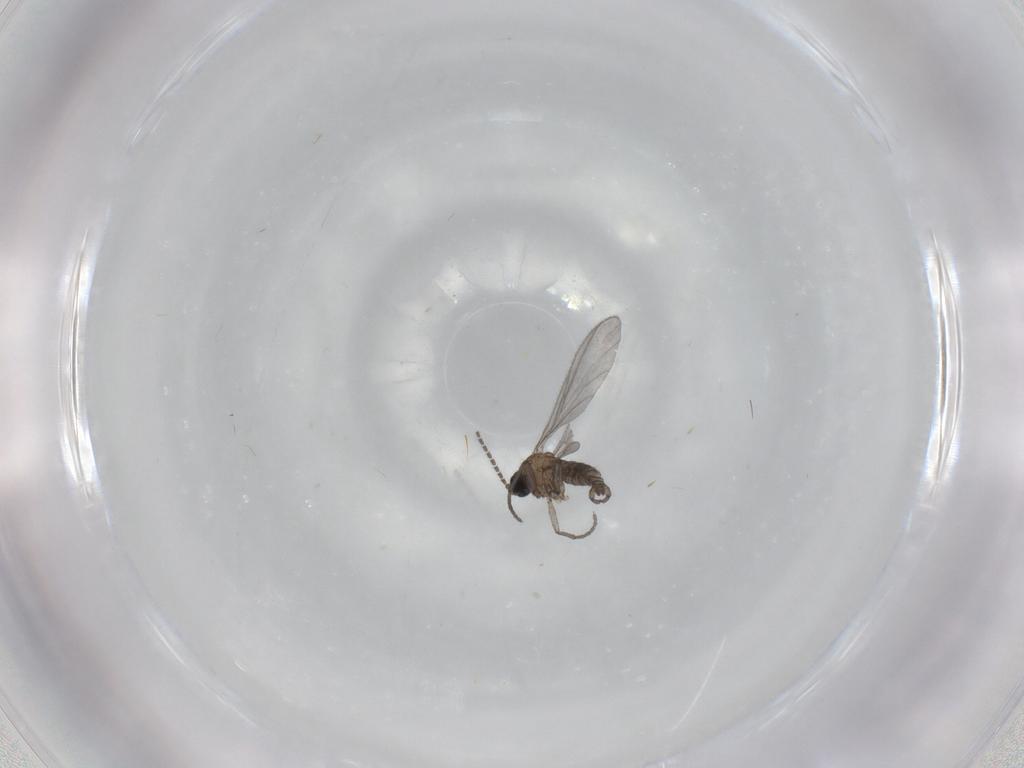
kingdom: Animalia
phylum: Arthropoda
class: Insecta
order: Diptera
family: Sciaridae
